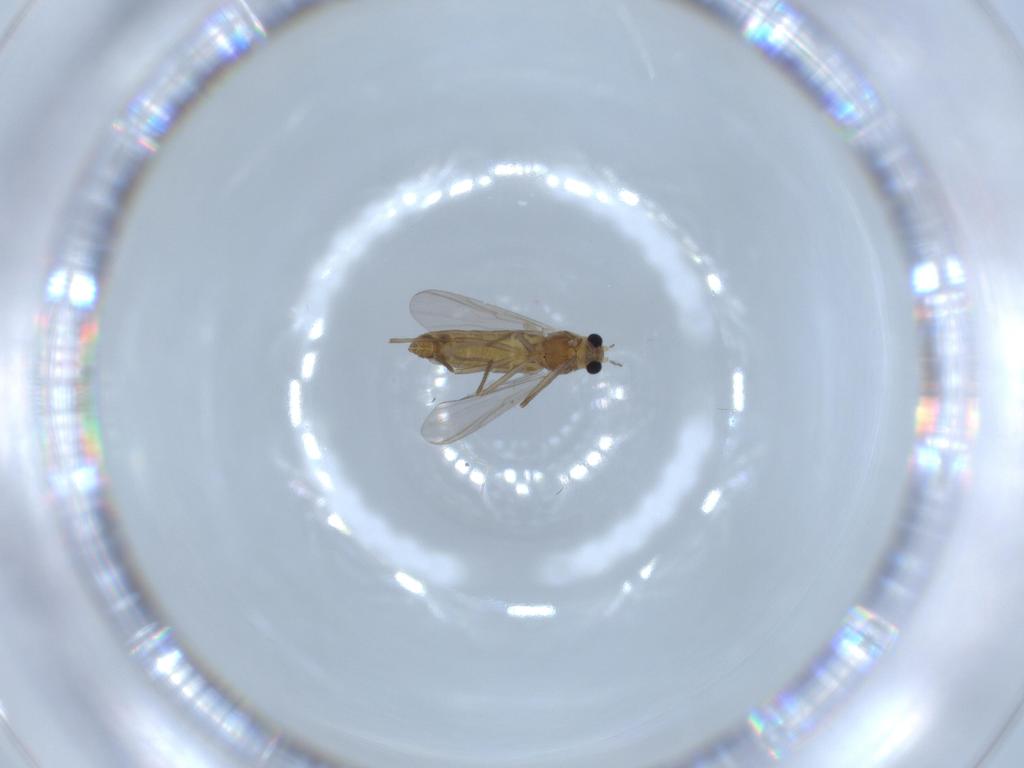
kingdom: Animalia
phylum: Arthropoda
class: Insecta
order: Diptera
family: Chironomidae
